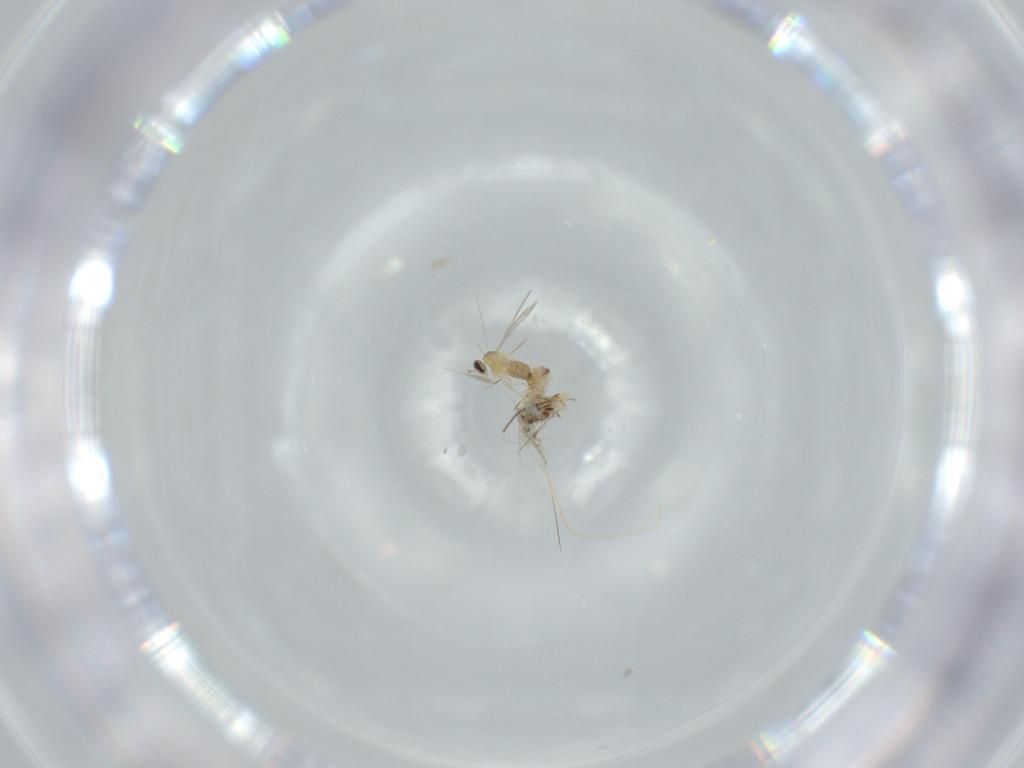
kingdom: Animalia
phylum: Arthropoda
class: Insecta
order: Diptera
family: Cecidomyiidae
